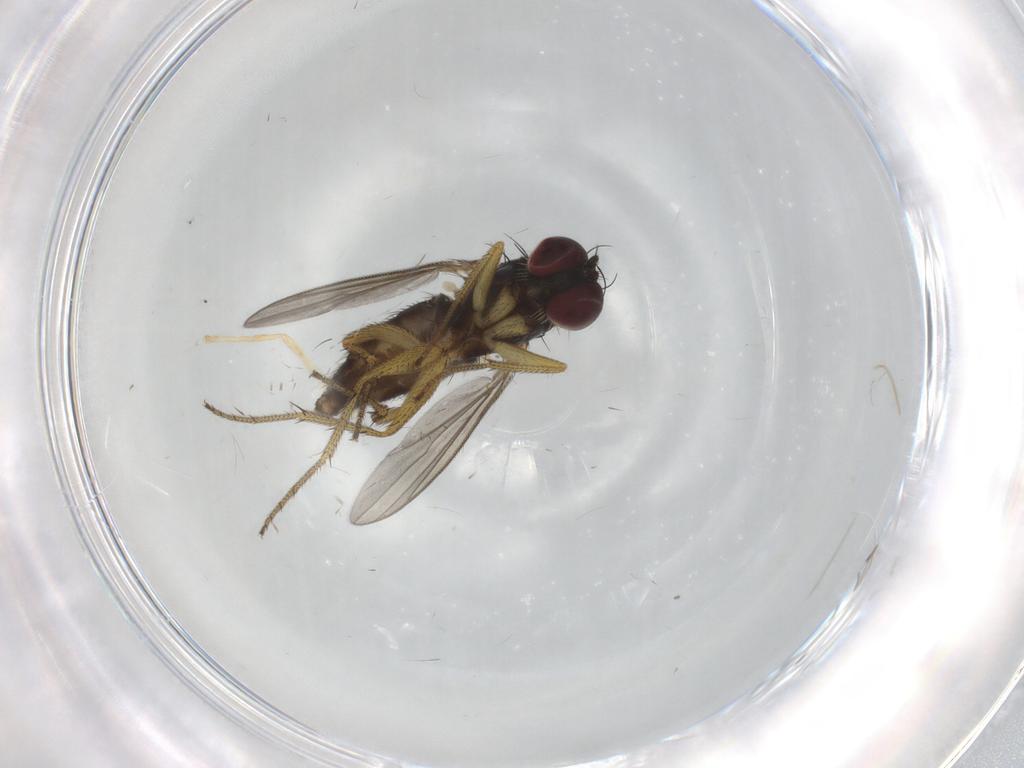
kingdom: Animalia
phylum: Arthropoda
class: Insecta
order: Diptera
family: Dolichopodidae
